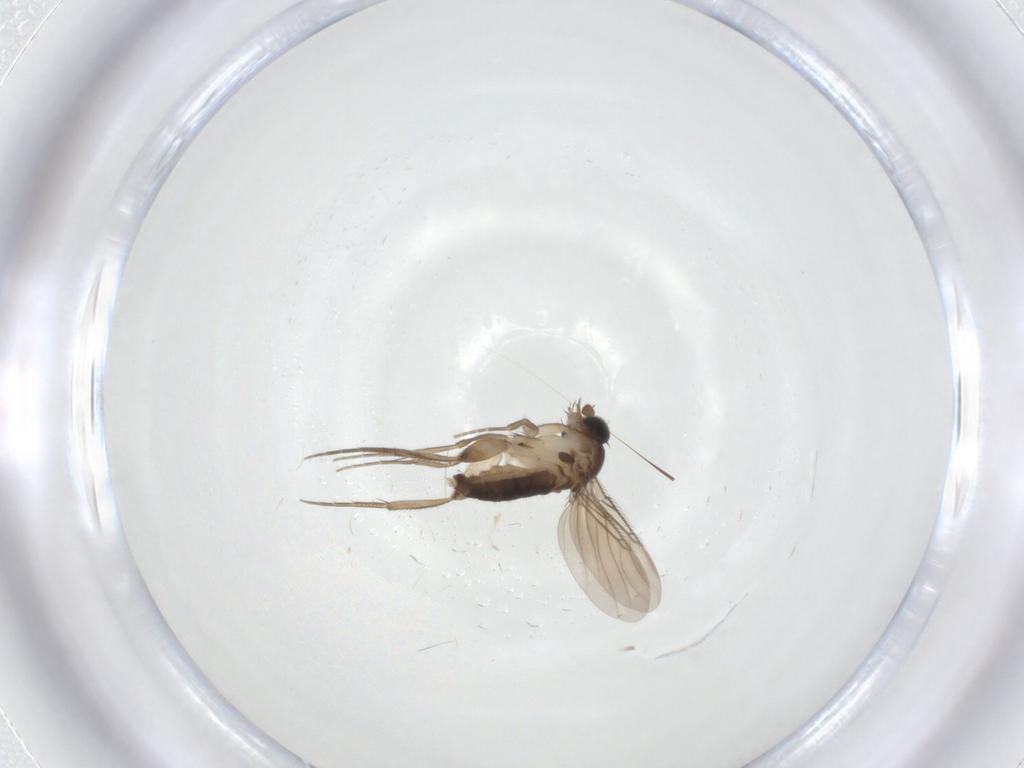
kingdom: Animalia
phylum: Arthropoda
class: Insecta
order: Diptera
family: Phoridae
